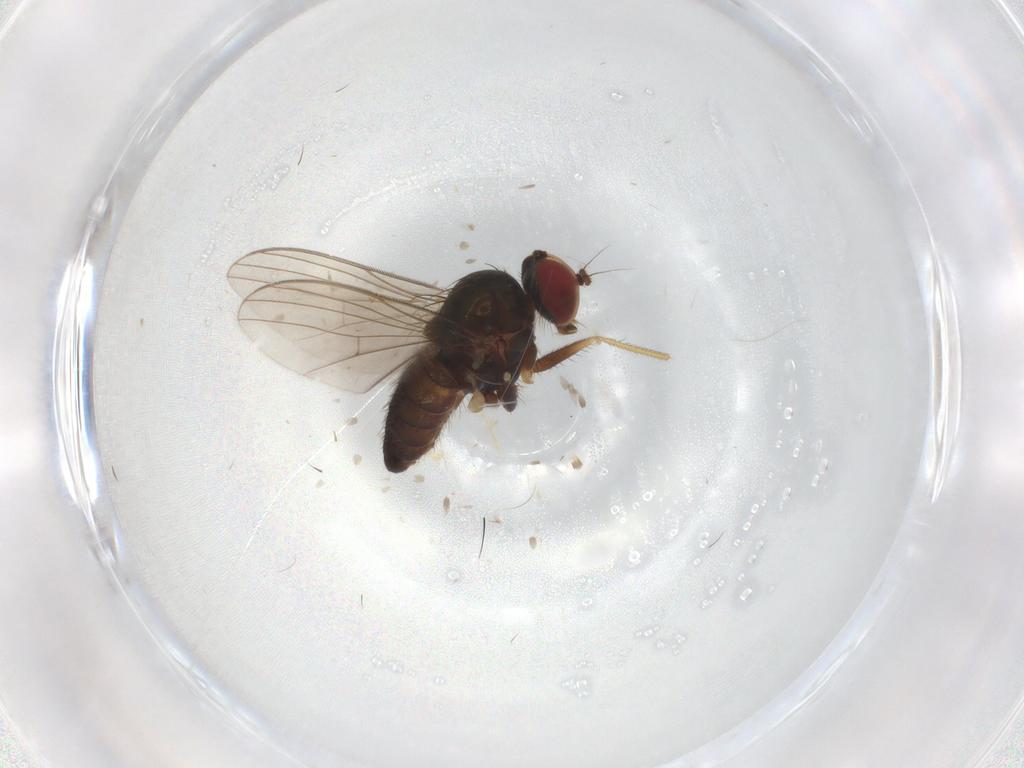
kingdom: Animalia
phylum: Arthropoda
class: Insecta
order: Diptera
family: Cecidomyiidae
